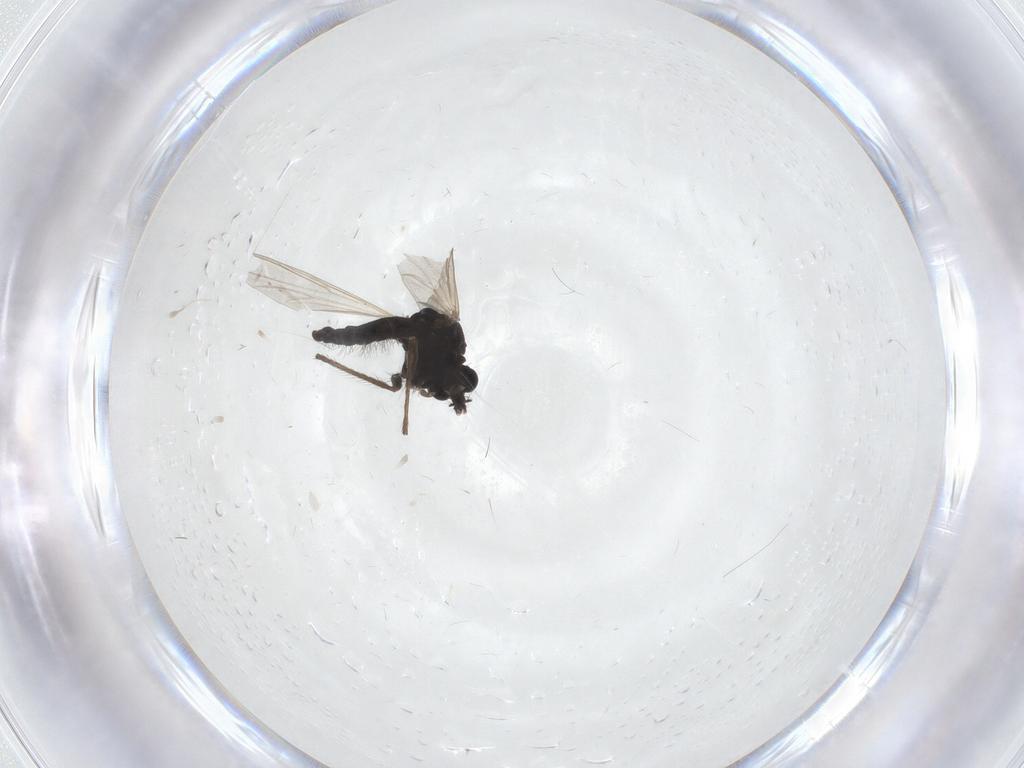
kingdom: Animalia
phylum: Arthropoda
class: Insecta
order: Diptera
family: Chironomidae
